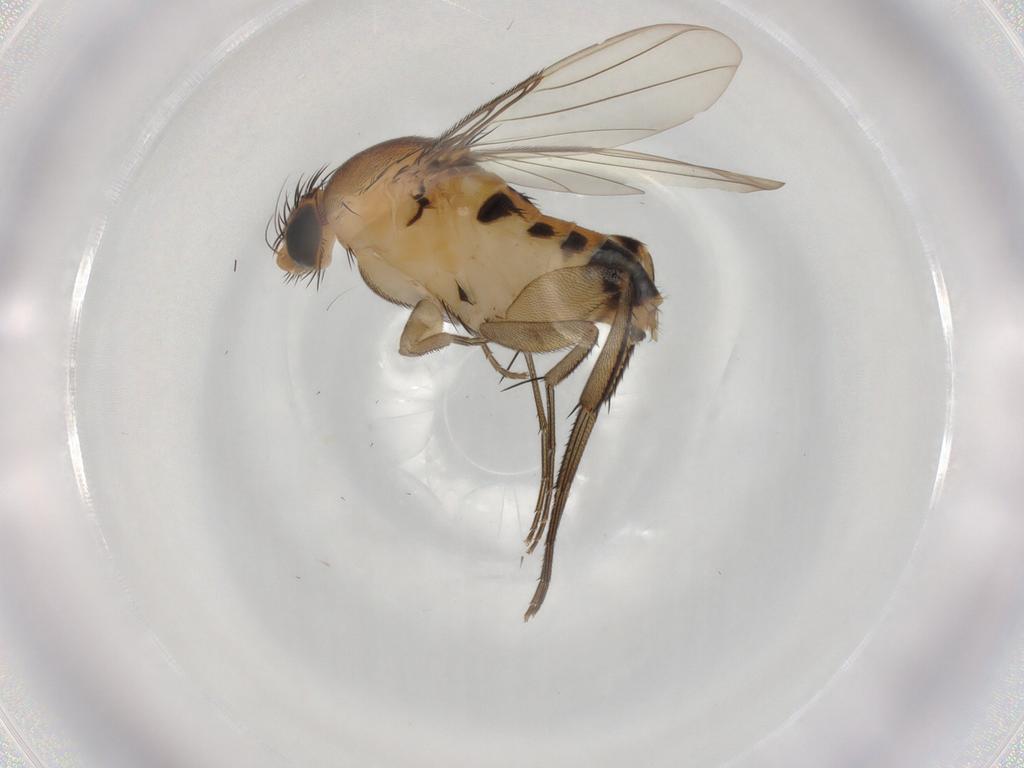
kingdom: Animalia
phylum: Arthropoda
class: Insecta
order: Diptera
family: Phoridae
